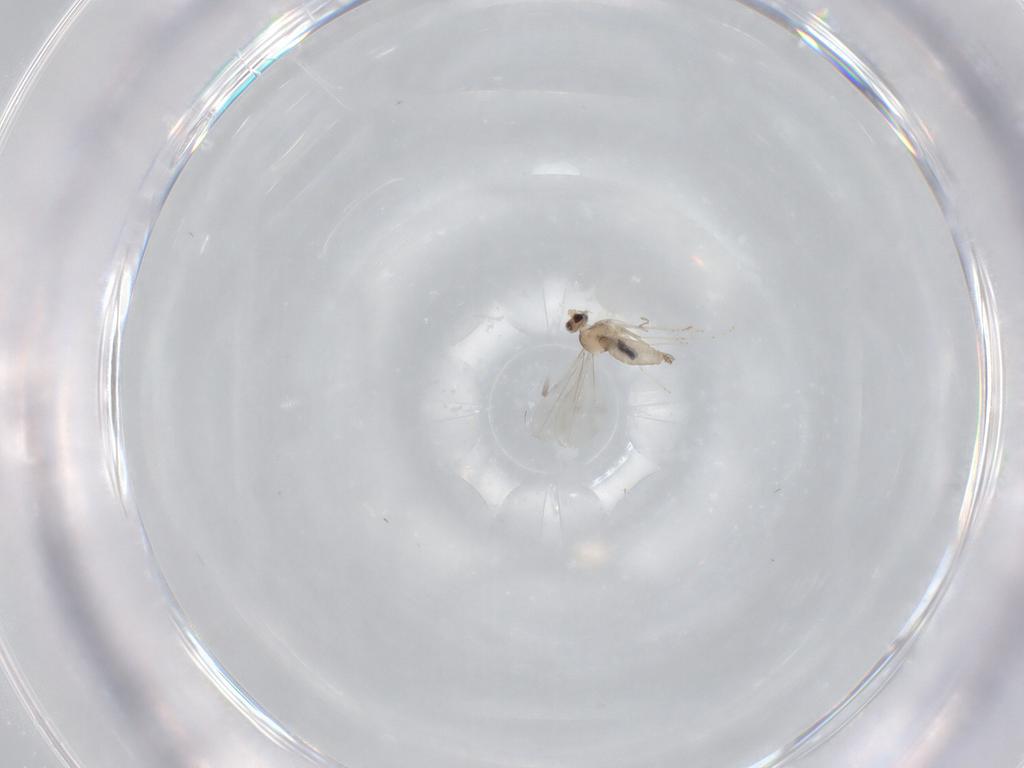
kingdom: Animalia
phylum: Arthropoda
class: Insecta
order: Diptera
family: Cecidomyiidae
